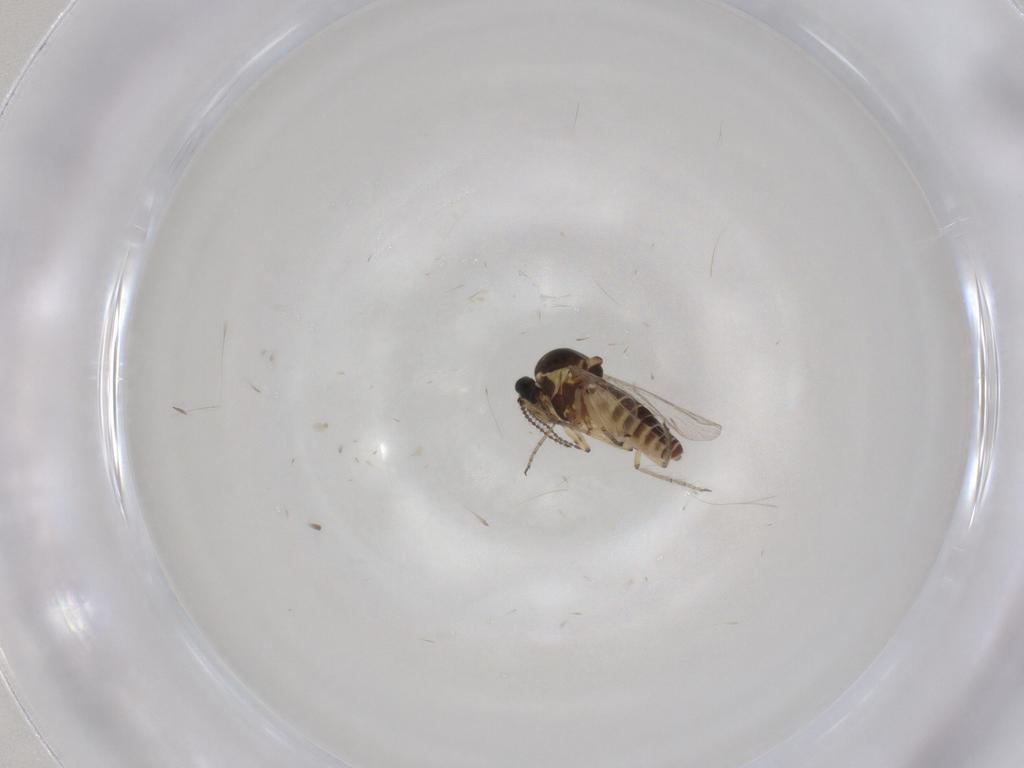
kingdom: Animalia
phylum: Arthropoda
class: Insecta
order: Diptera
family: Ceratopogonidae
